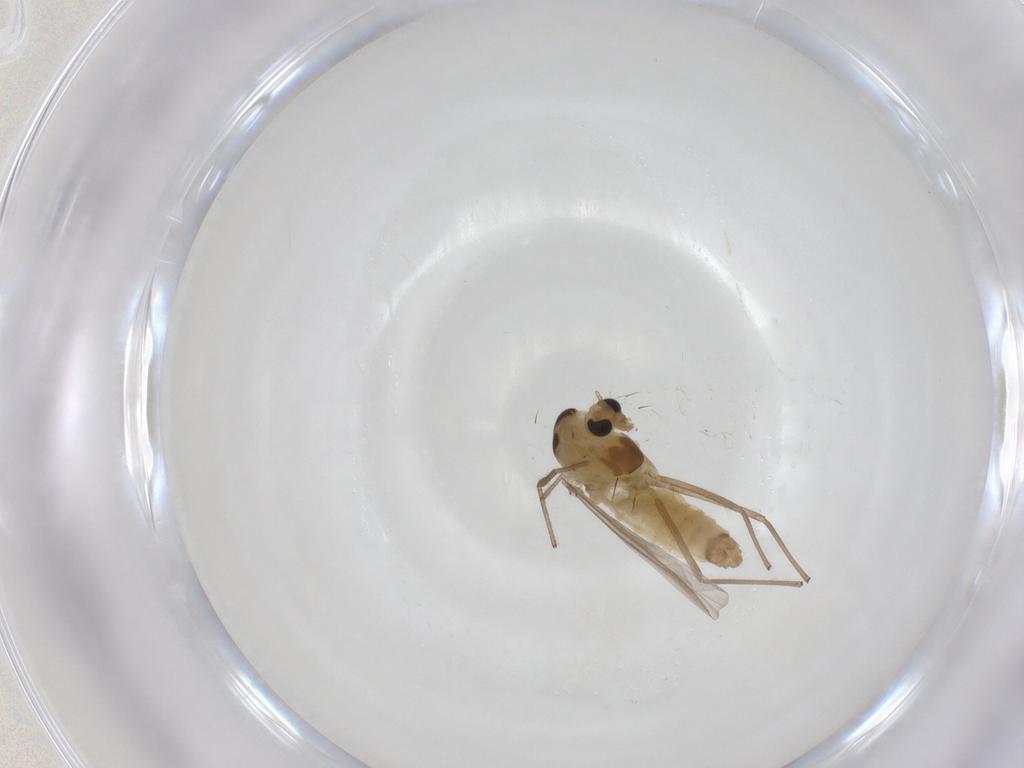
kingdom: Animalia
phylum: Arthropoda
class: Insecta
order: Diptera
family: Chironomidae
